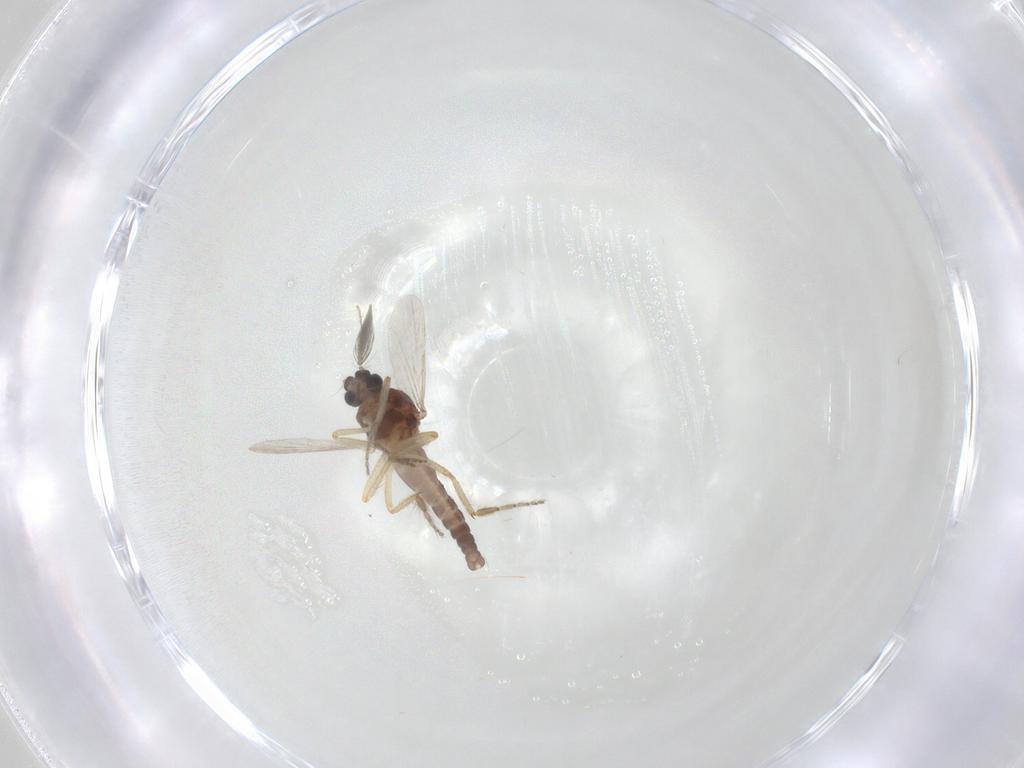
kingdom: Animalia
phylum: Arthropoda
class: Insecta
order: Diptera
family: Ceratopogonidae
